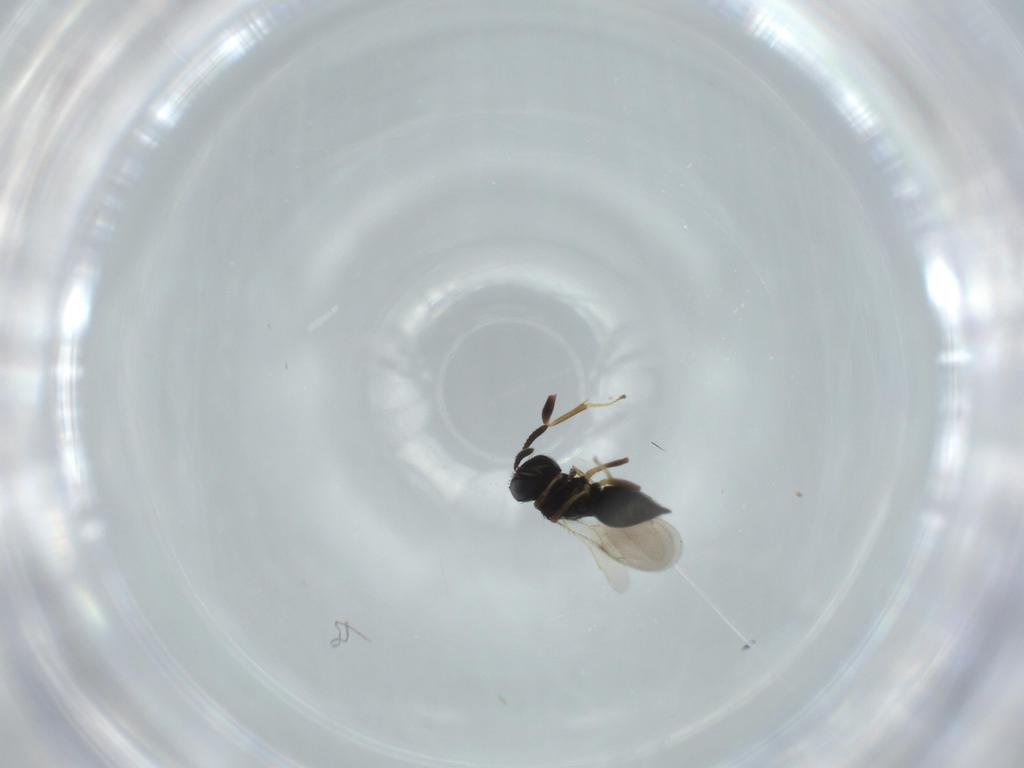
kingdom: Animalia
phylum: Arthropoda
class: Insecta
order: Hymenoptera
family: Pteromalidae
